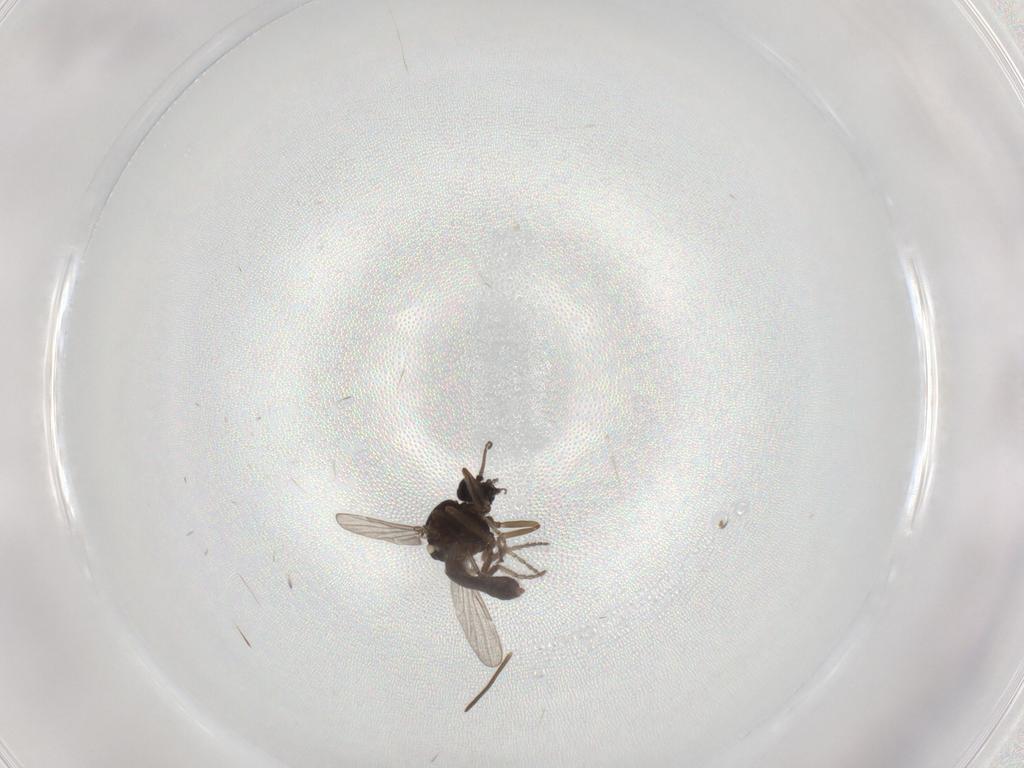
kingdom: Animalia
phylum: Arthropoda
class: Insecta
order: Diptera
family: Ceratopogonidae
